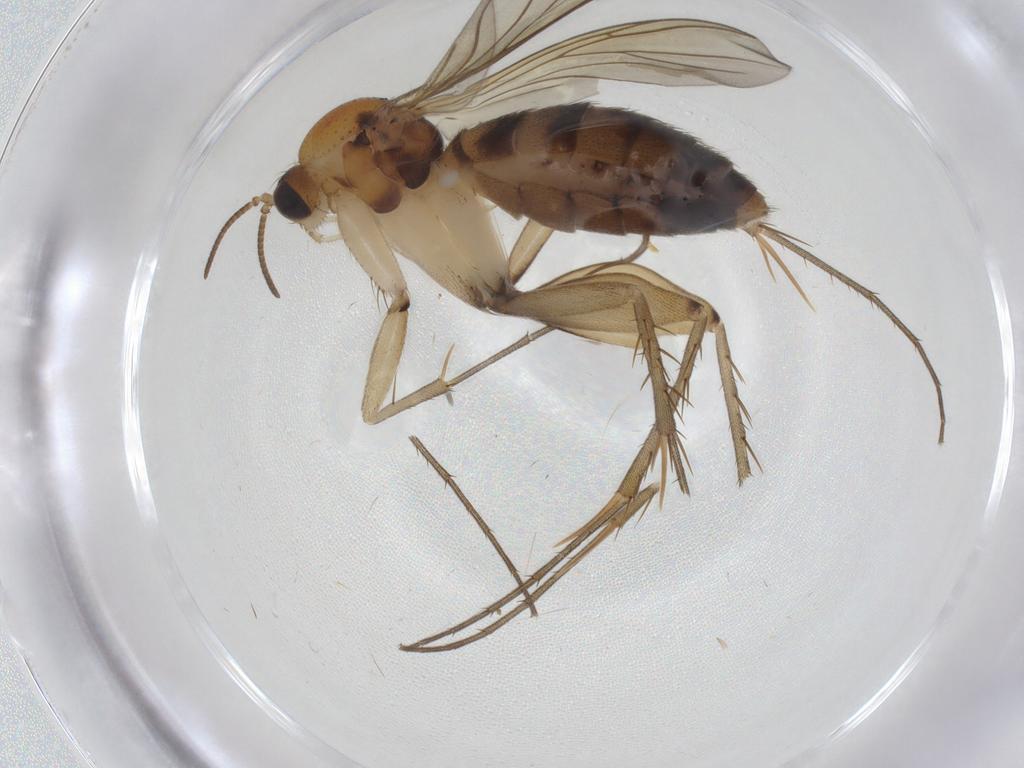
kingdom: Animalia
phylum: Arthropoda
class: Insecta
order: Diptera
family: Mycetophilidae
